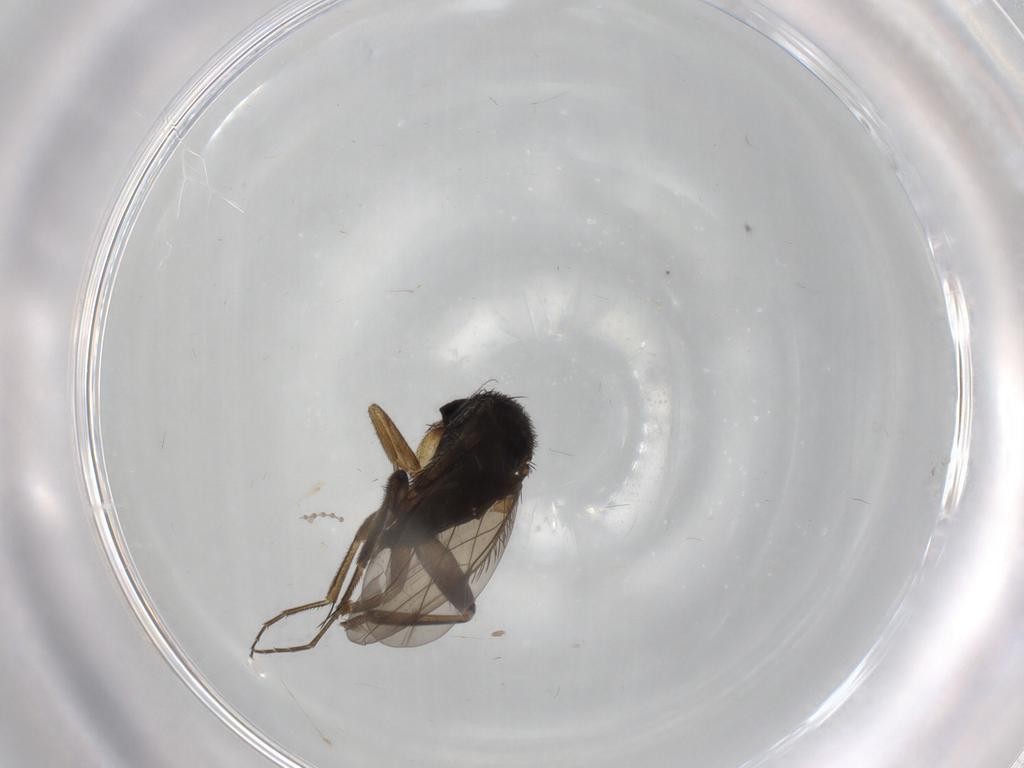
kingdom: Animalia
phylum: Arthropoda
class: Insecta
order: Diptera
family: Phoridae
